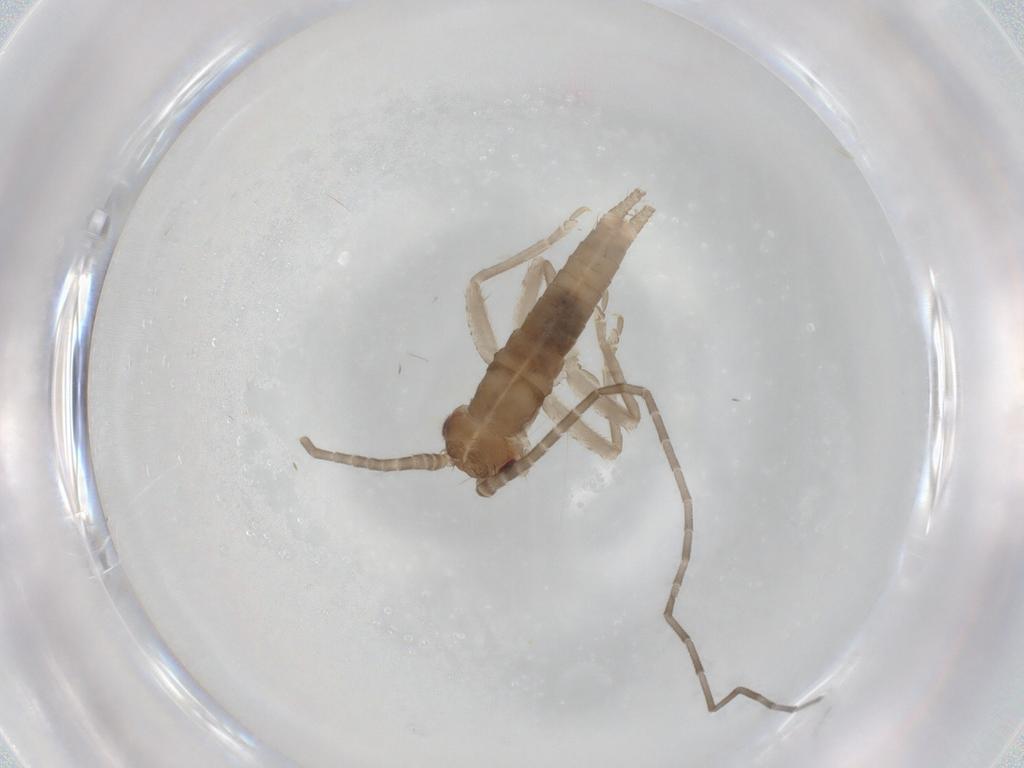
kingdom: Animalia
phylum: Arthropoda
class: Insecta
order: Orthoptera
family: Gryllidae
